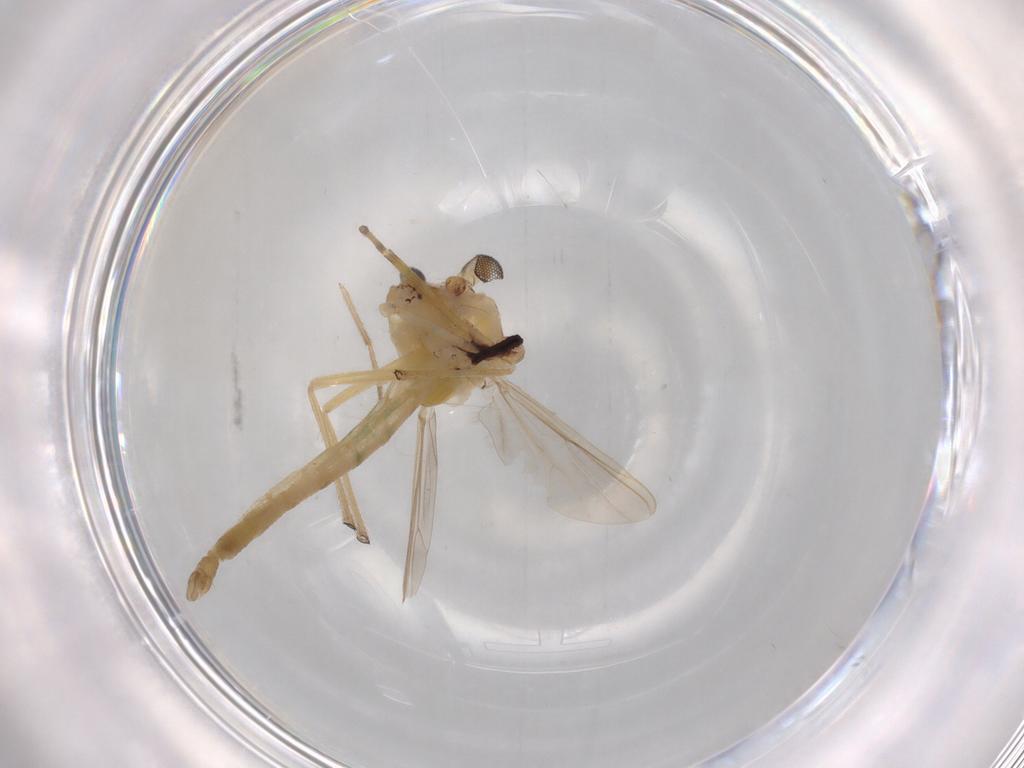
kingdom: Animalia
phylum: Arthropoda
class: Insecta
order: Diptera
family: Chironomidae
